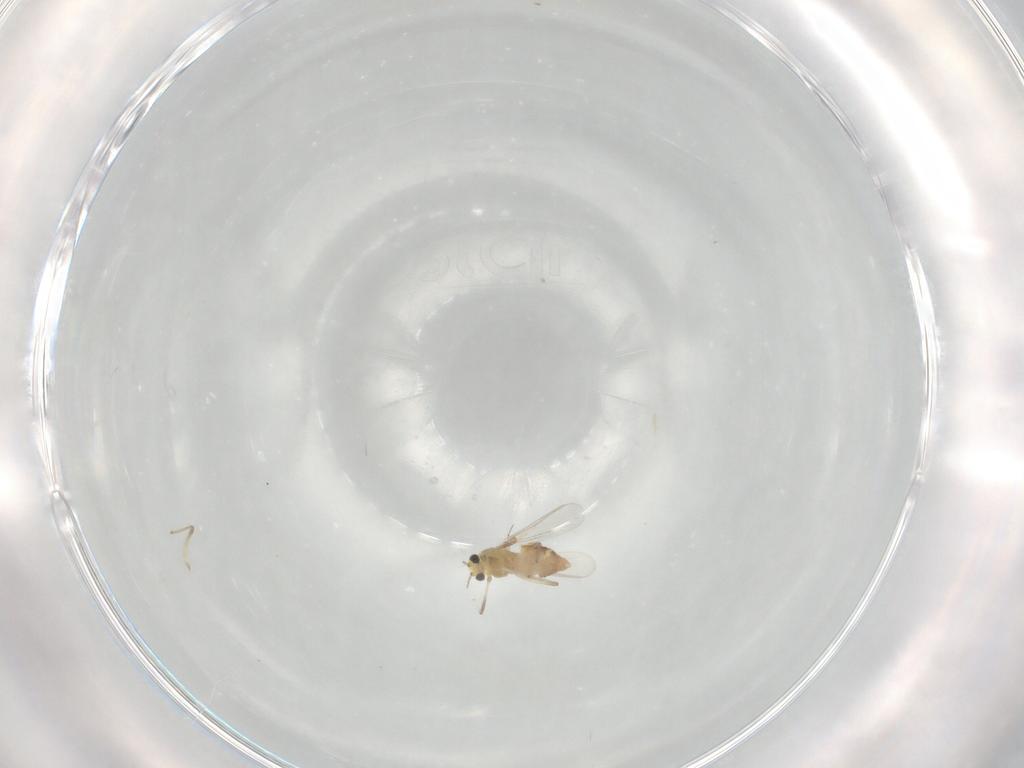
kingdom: Animalia
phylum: Arthropoda
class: Insecta
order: Diptera
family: Chironomidae
